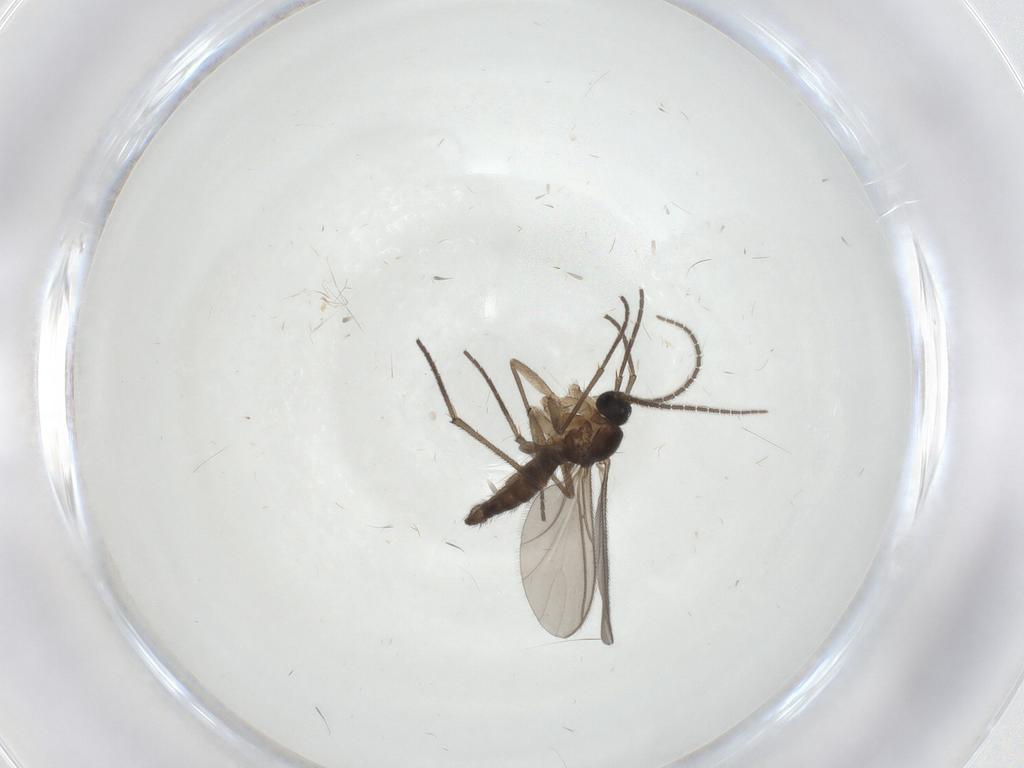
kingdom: Animalia
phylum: Arthropoda
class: Insecta
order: Diptera
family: Sciaridae
